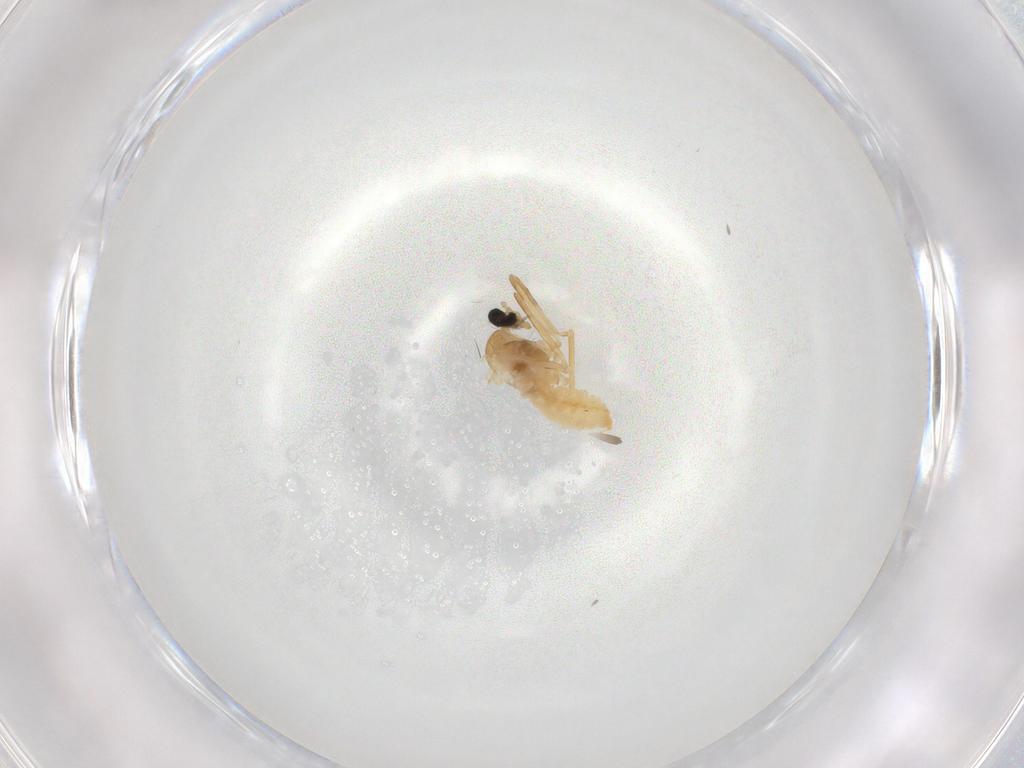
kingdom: Animalia
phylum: Arthropoda
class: Insecta
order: Diptera
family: Cecidomyiidae
